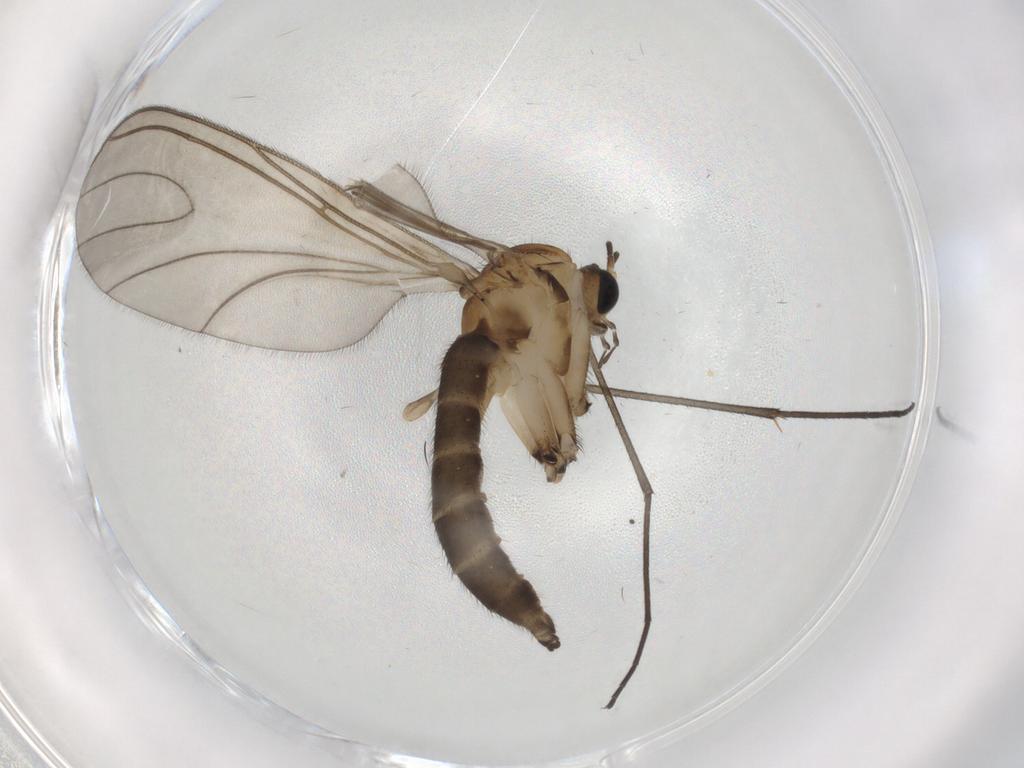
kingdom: Animalia
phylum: Arthropoda
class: Insecta
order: Diptera
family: Sciaridae
